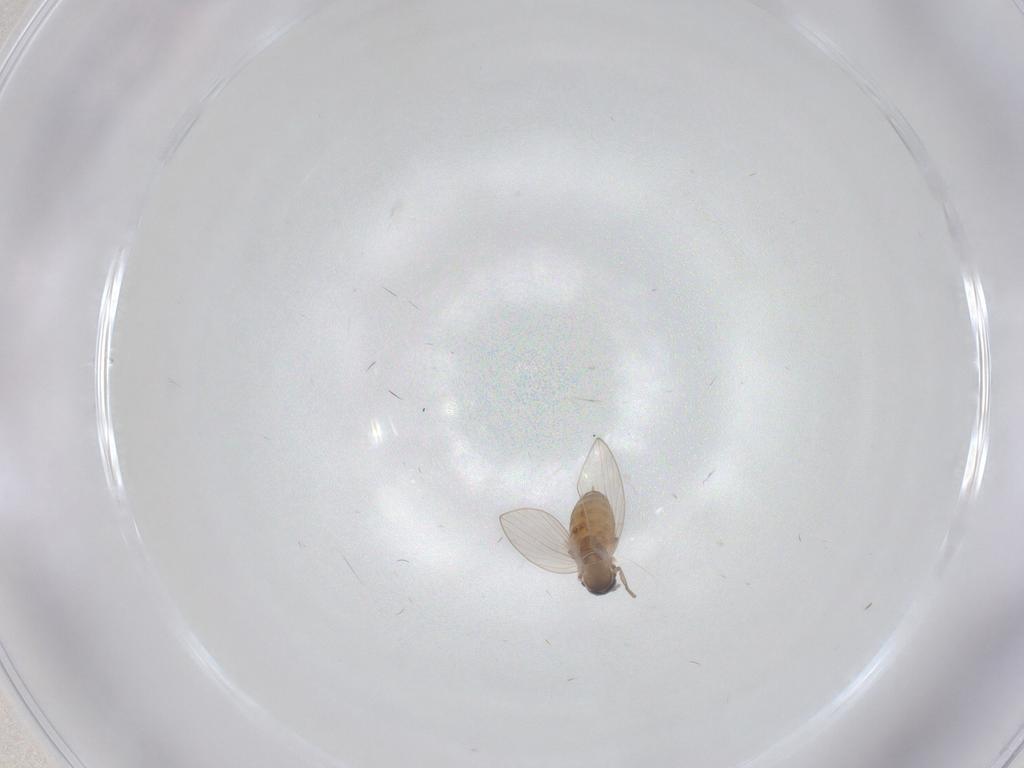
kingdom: Animalia
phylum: Arthropoda
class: Insecta
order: Diptera
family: Psychodidae
